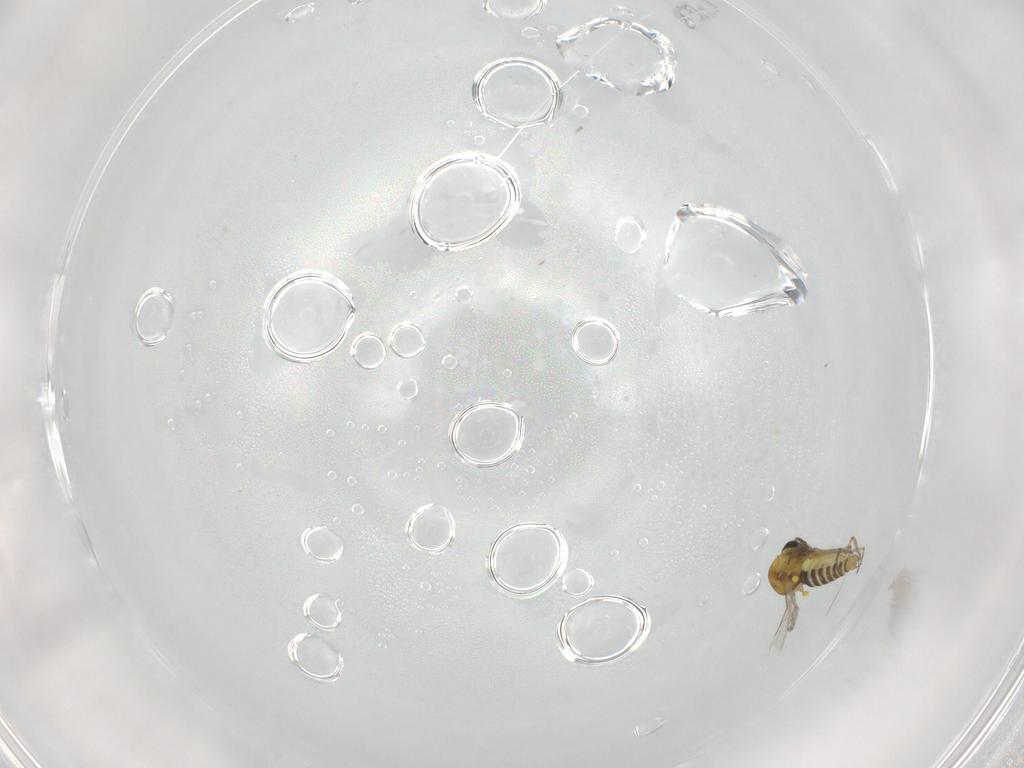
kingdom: Animalia
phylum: Arthropoda
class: Insecta
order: Diptera
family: Ceratopogonidae
